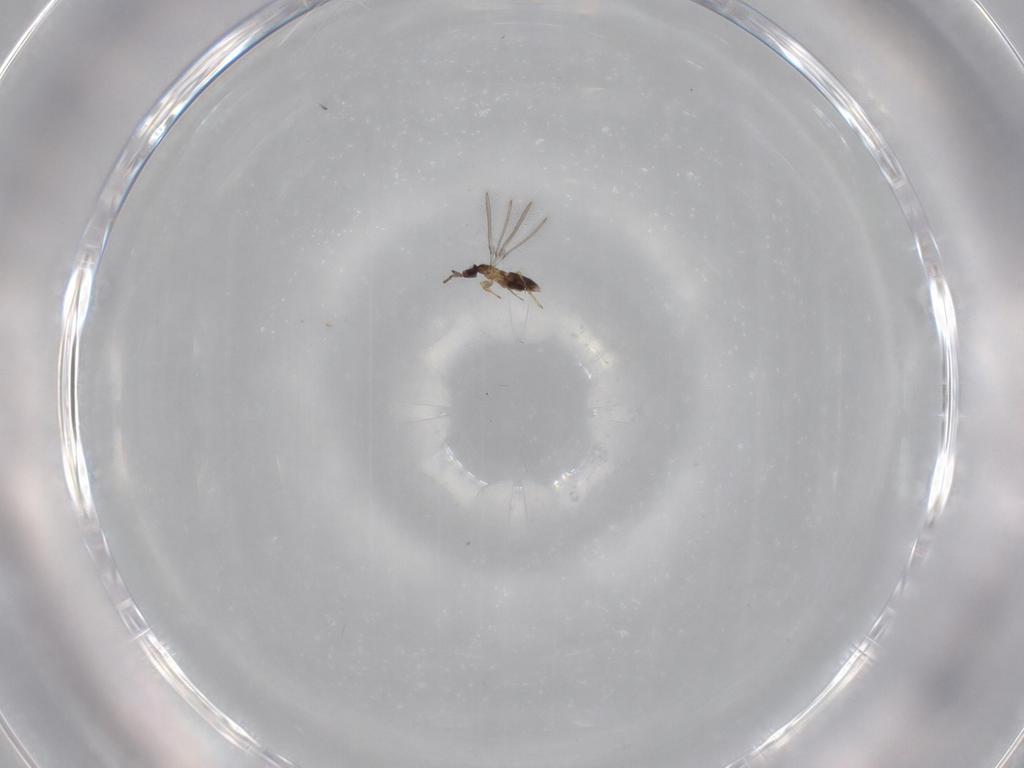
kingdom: Animalia
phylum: Arthropoda
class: Insecta
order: Hymenoptera
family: Mymaridae
